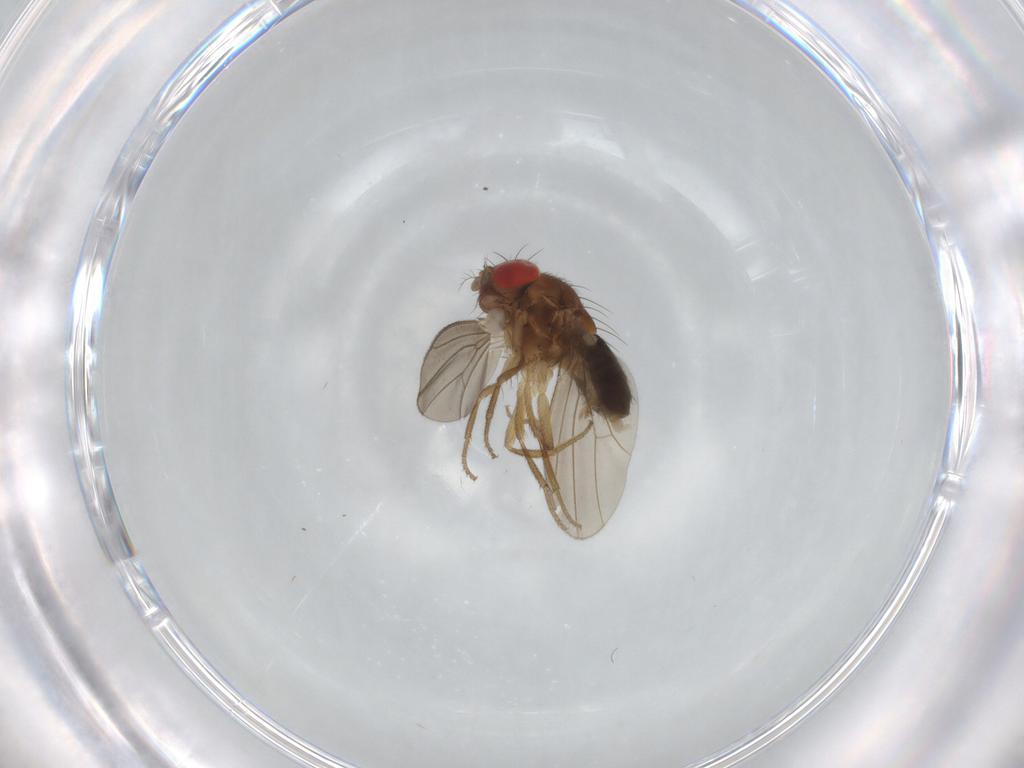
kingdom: Animalia
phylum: Arthropoda
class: Insecta
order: Diptera
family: Drosophilidae
